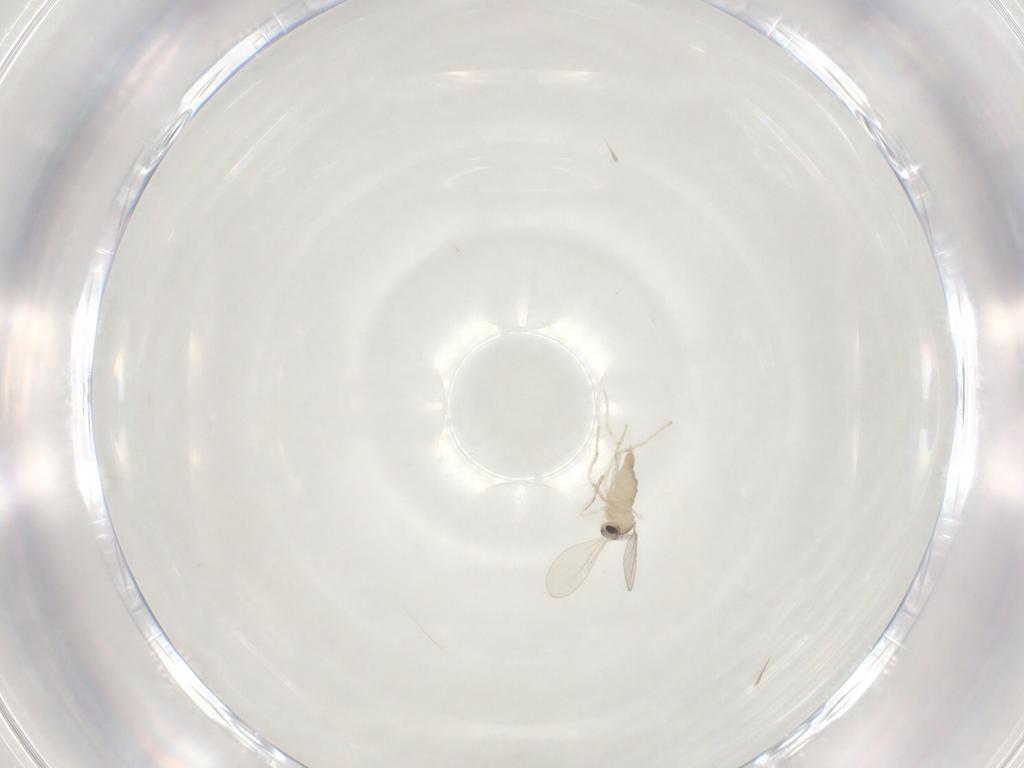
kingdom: Animalia
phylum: Arthropoda
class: Insecta
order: Diptera
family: Cecidomyiidae
